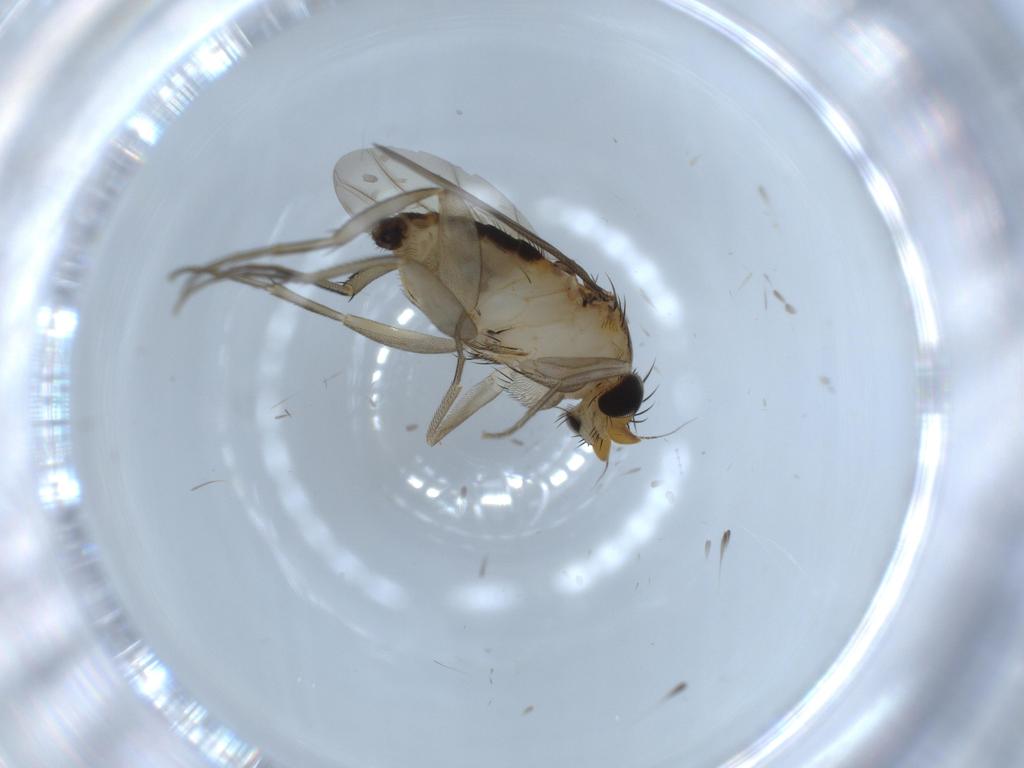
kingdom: Animalia
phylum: Arthropoda
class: Insecta
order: Diptera
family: Phoridae
